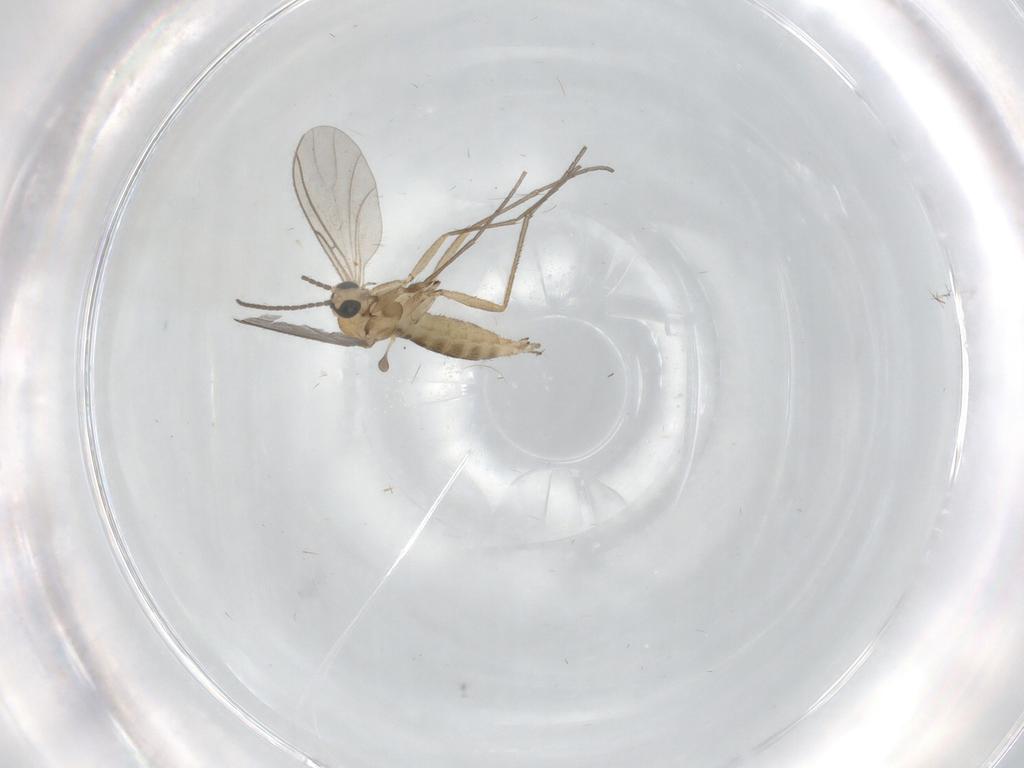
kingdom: Animalia
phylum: Arthropoda
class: Insecta
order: Diptera
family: Sciaridae
